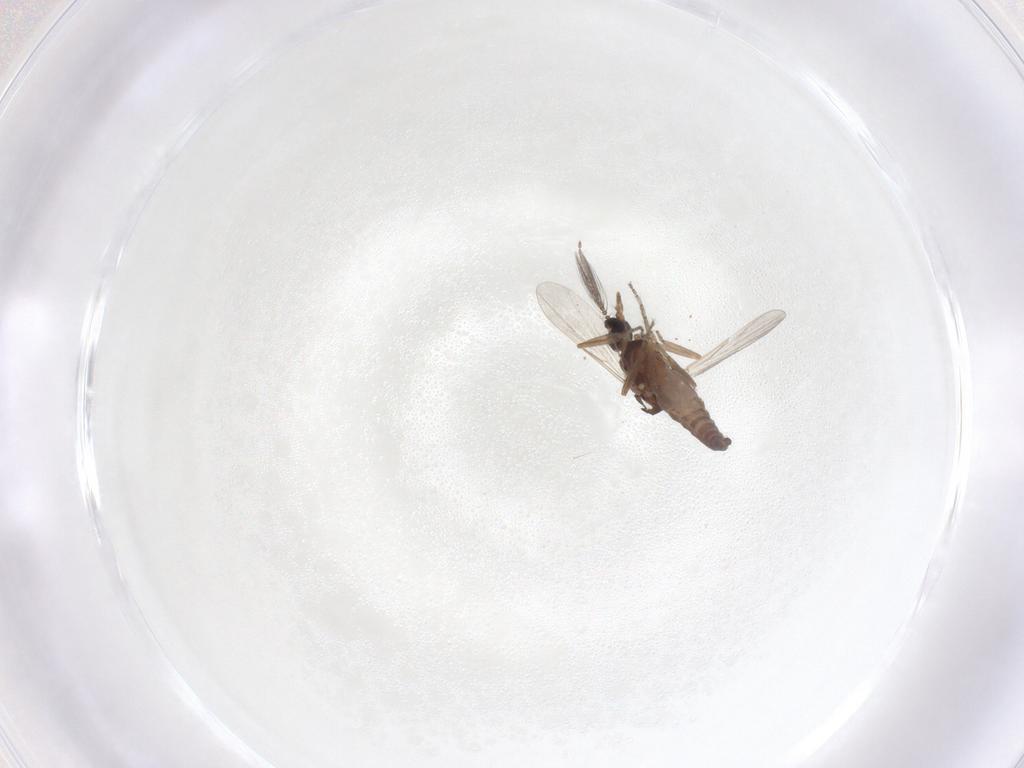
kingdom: Animalia
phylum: Arthropoda
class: Insecta
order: Diptera
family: Ceratopogonidae
